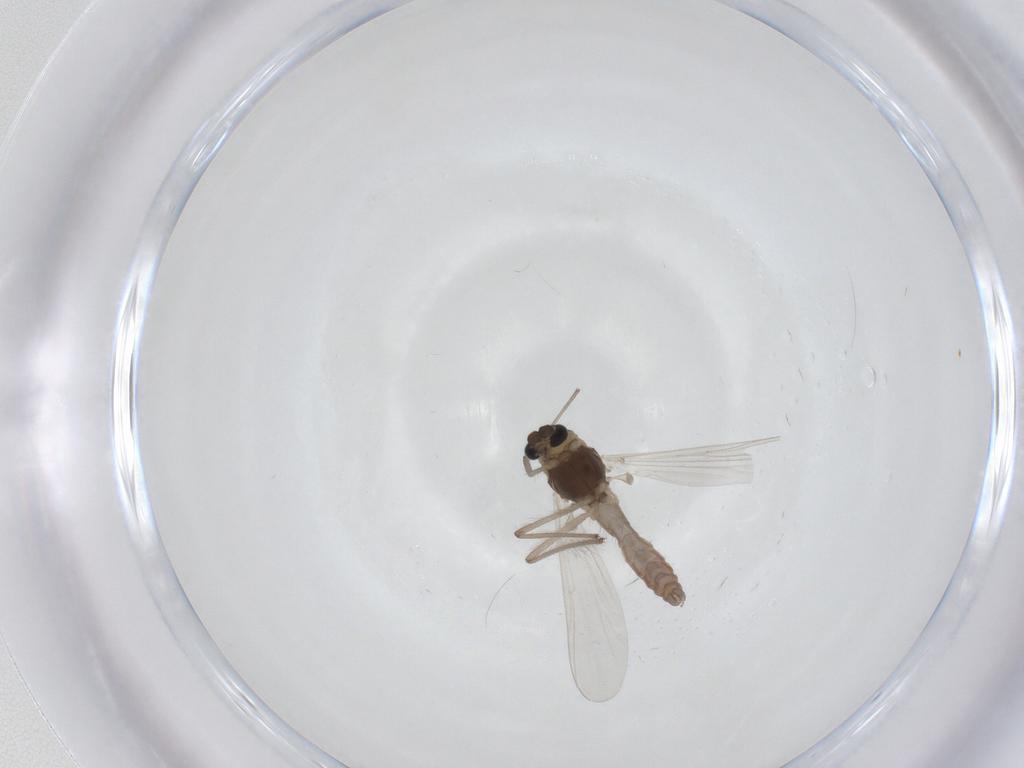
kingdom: Animalia
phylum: Arthropoda
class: Insecta
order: Diptera
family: Chironomidae
